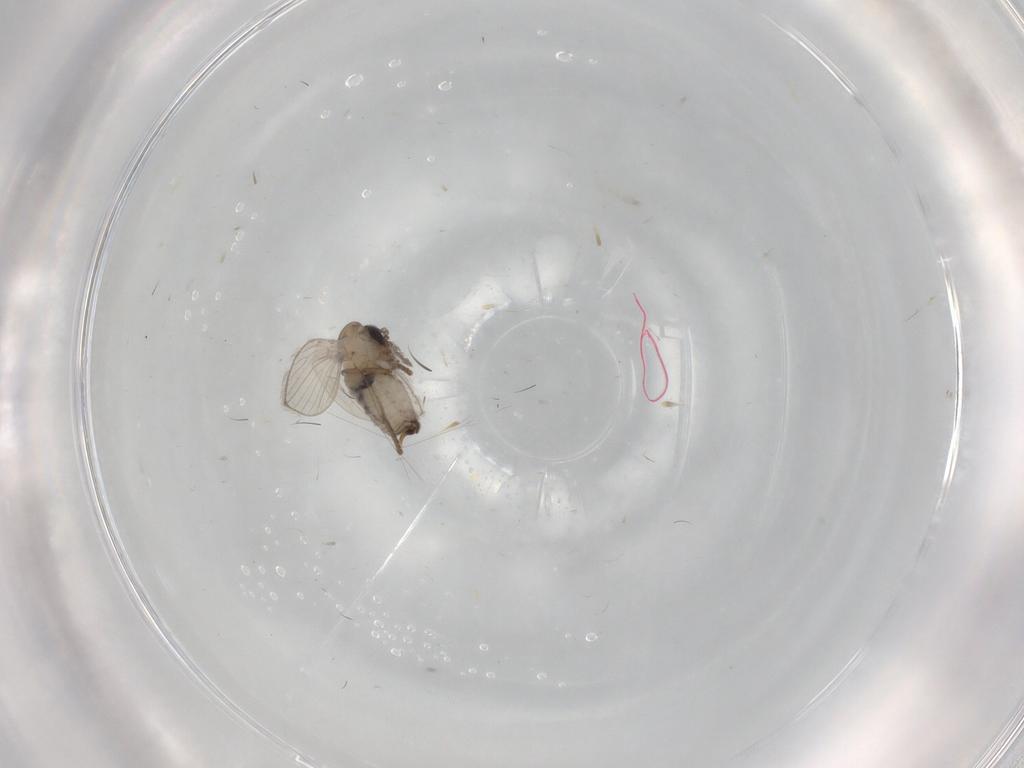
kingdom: Animalia
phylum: Arthropoda
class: Insecta
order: Diptera
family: Psychodidae
